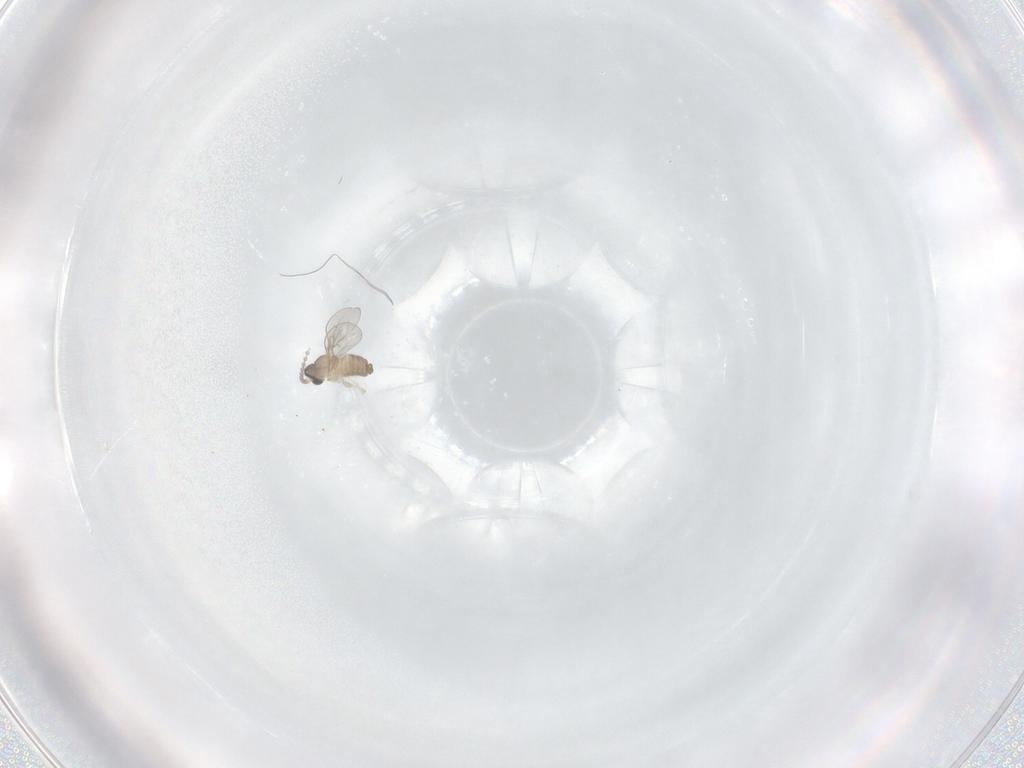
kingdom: Animalia
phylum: Arthropoda
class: Insecta
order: Diptera
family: Cecidomyiidae
